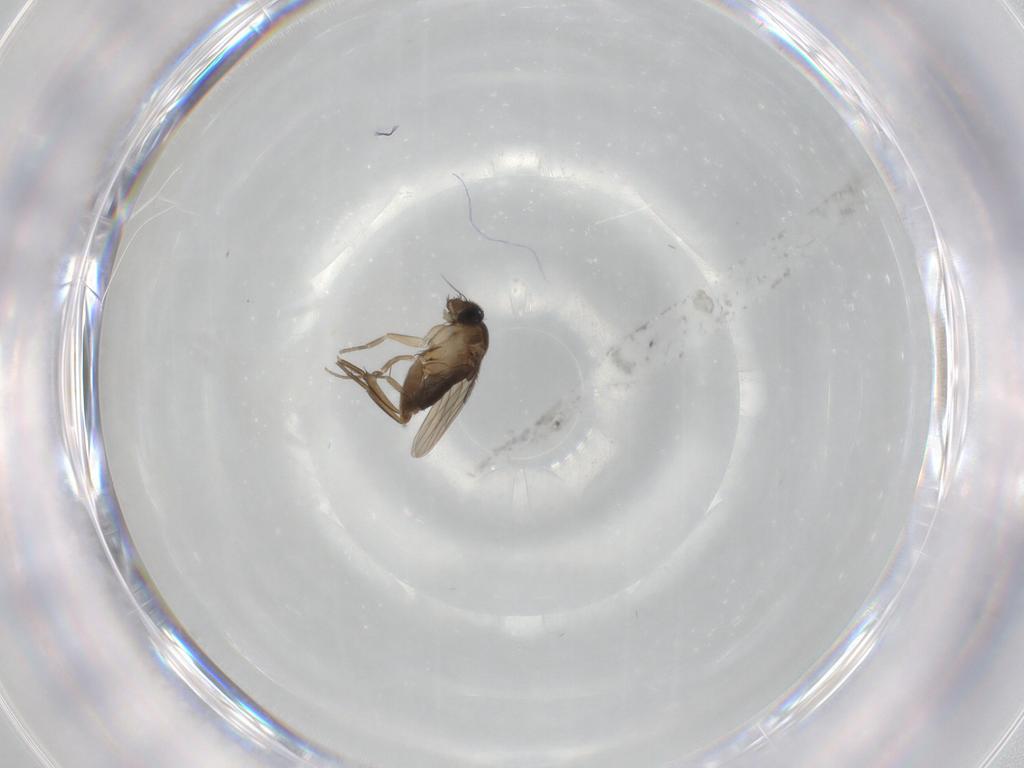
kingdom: Animalia
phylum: Arthropoda
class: Insecta
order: Diptera
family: Phoridae
